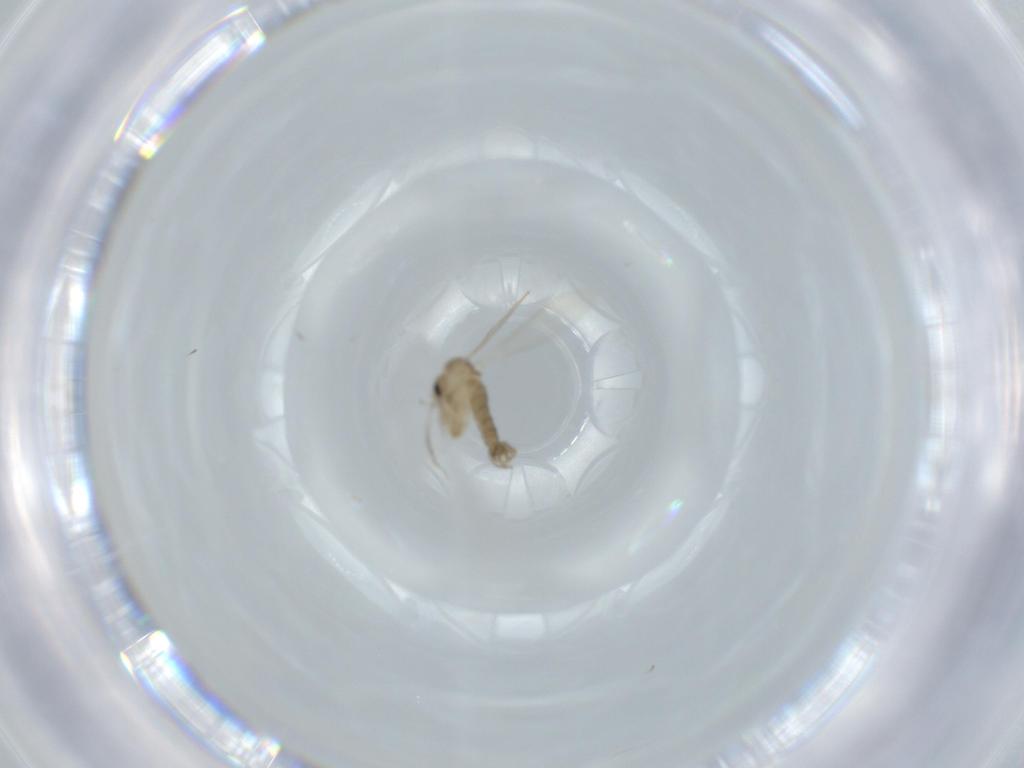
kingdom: Animalia
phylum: Arthropoda
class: Insecta
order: Diptera
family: Psychodidae
